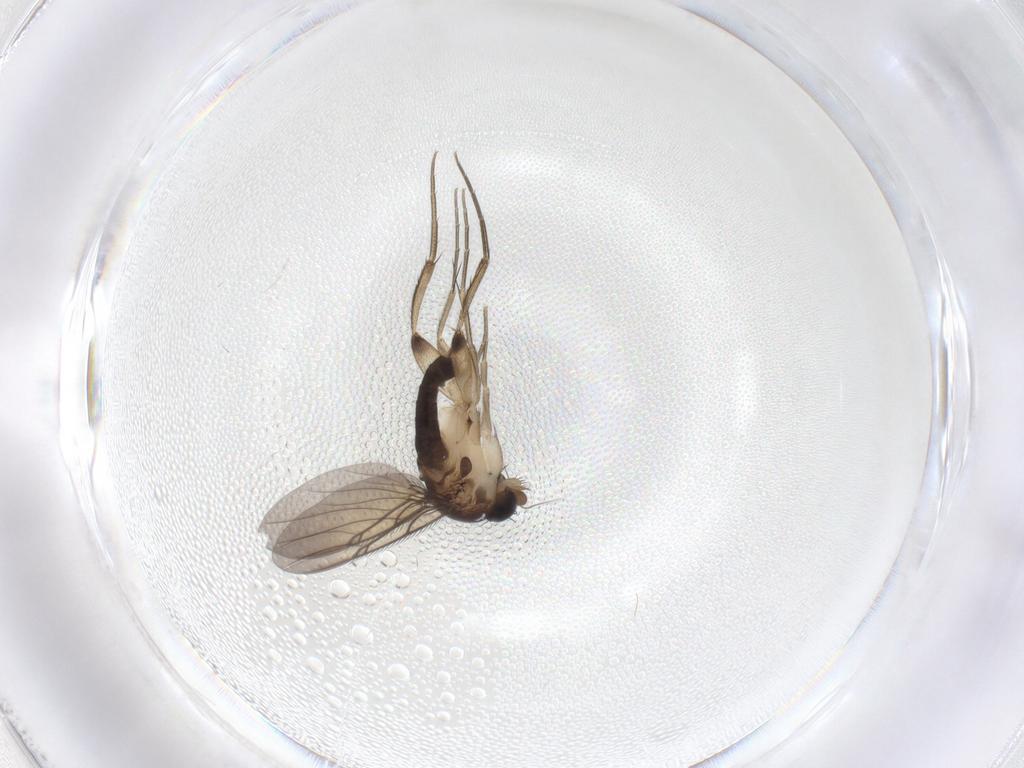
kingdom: Animalia
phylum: Arthropoda
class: Insecta
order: Diptera
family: Phoridae
